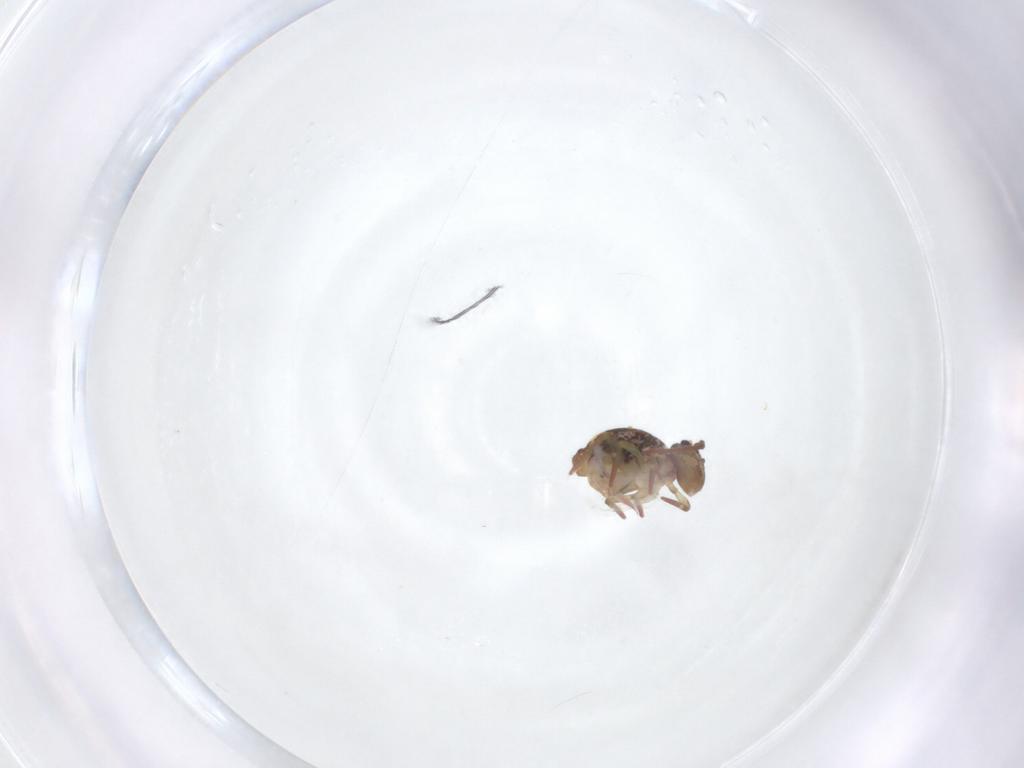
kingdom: Animalia
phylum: Arthropoda
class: Collembola
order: Symphypleona
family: Dicyrtomidae
